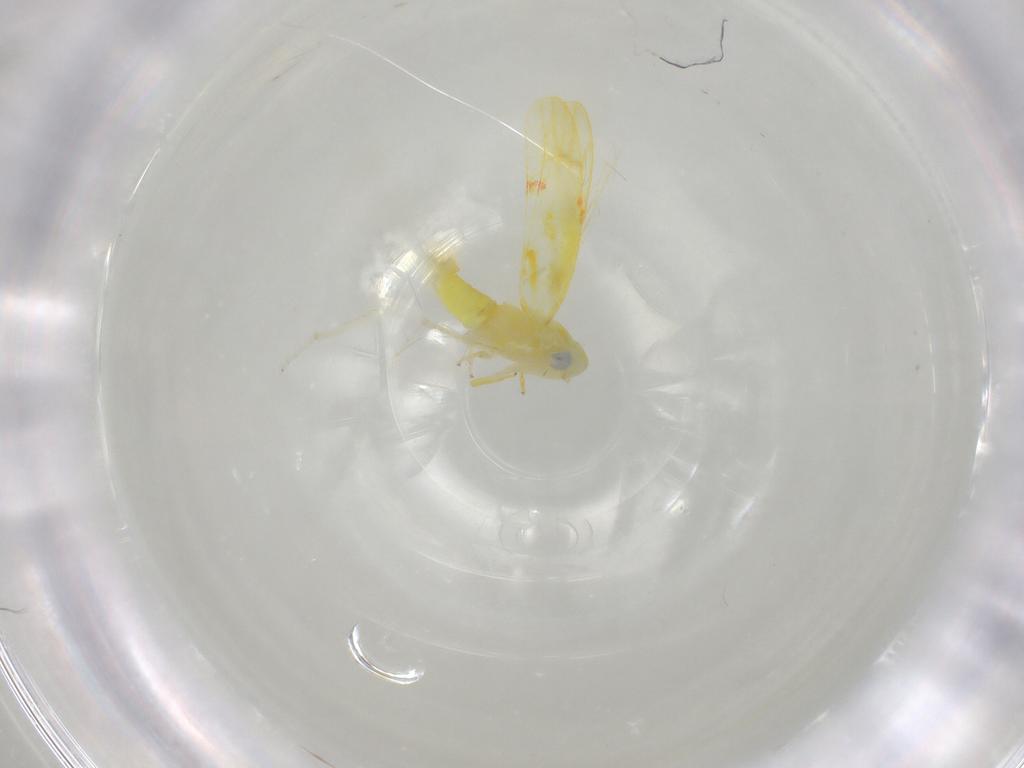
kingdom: Animalia
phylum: Arthropoda
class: Insecta
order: Hemiptera
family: Cicadellidae
